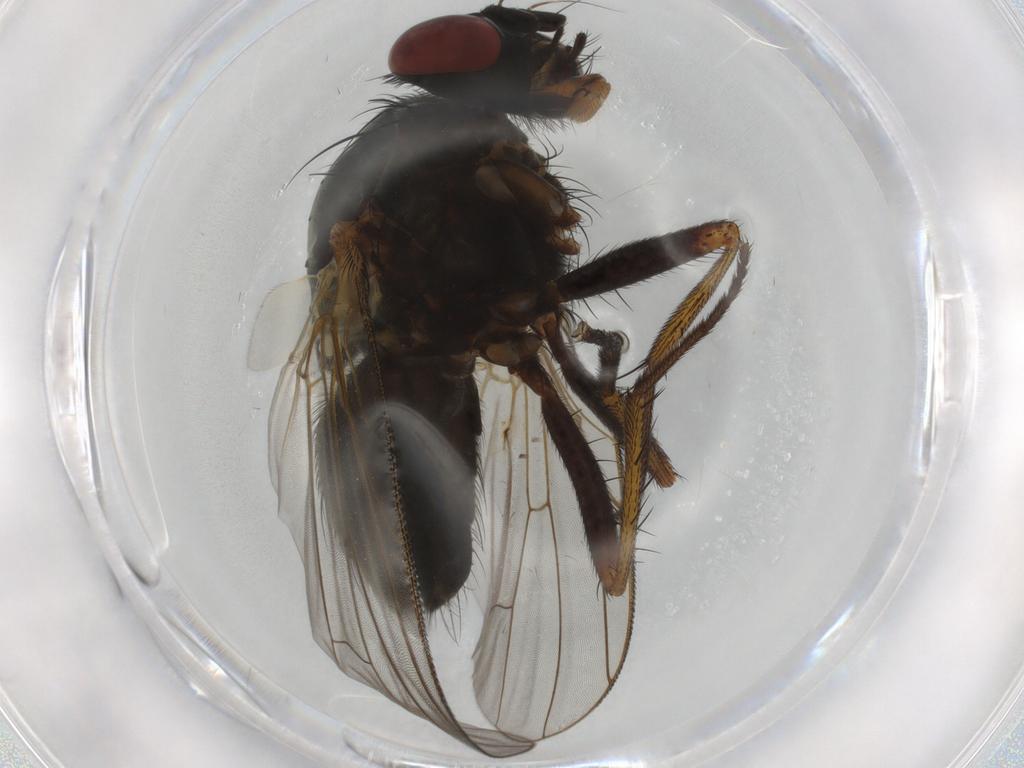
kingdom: Animalia
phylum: Arthropoda
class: Insecta
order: Diptera
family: Anthomyiidae
